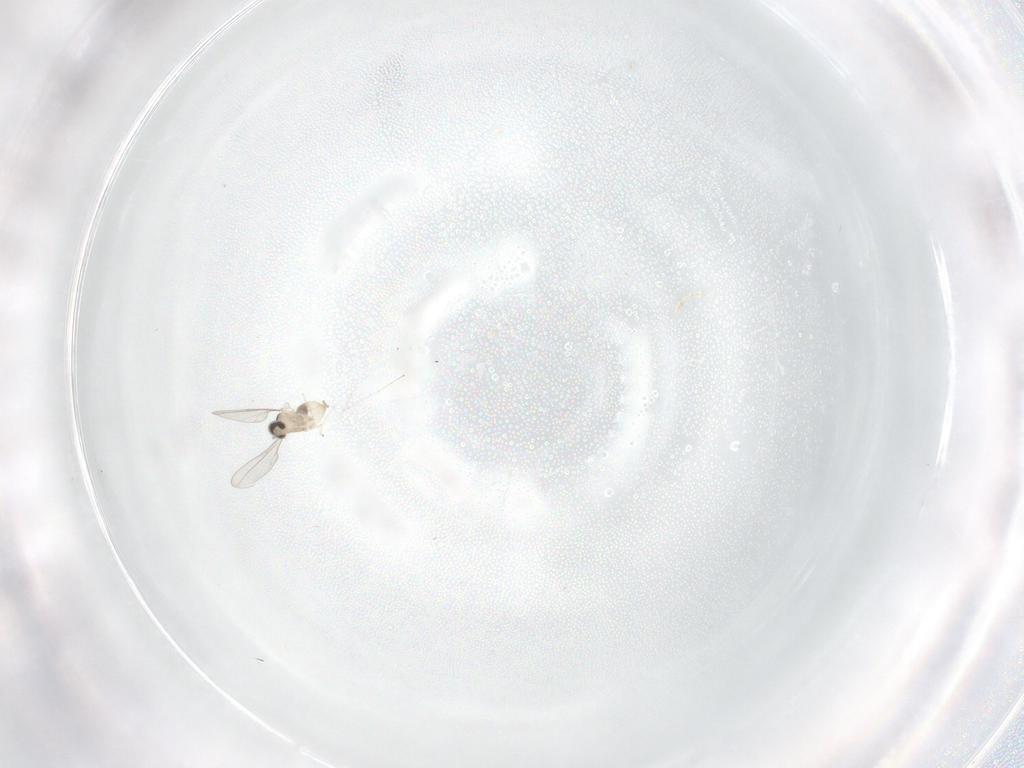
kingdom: Animalia
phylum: Arthropoda
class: Insecta
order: Diptera
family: Cecidomyiidae
